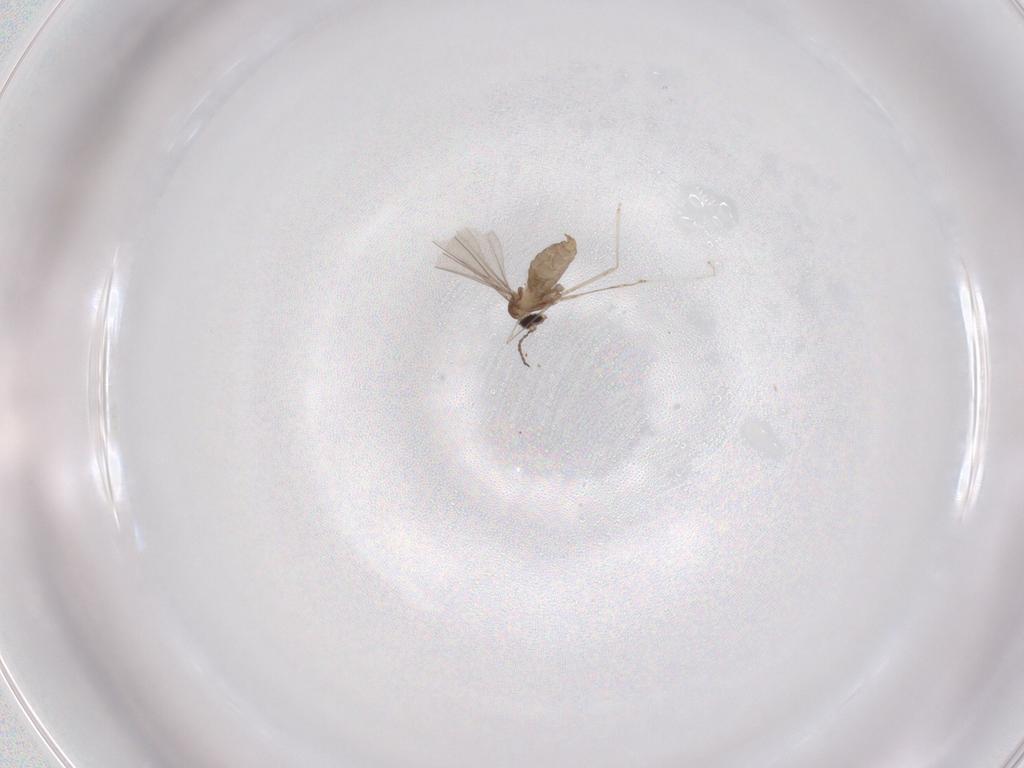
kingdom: Animalia
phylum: Arthropoda
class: Insecta
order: Diptera
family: Cecidomyiidae
